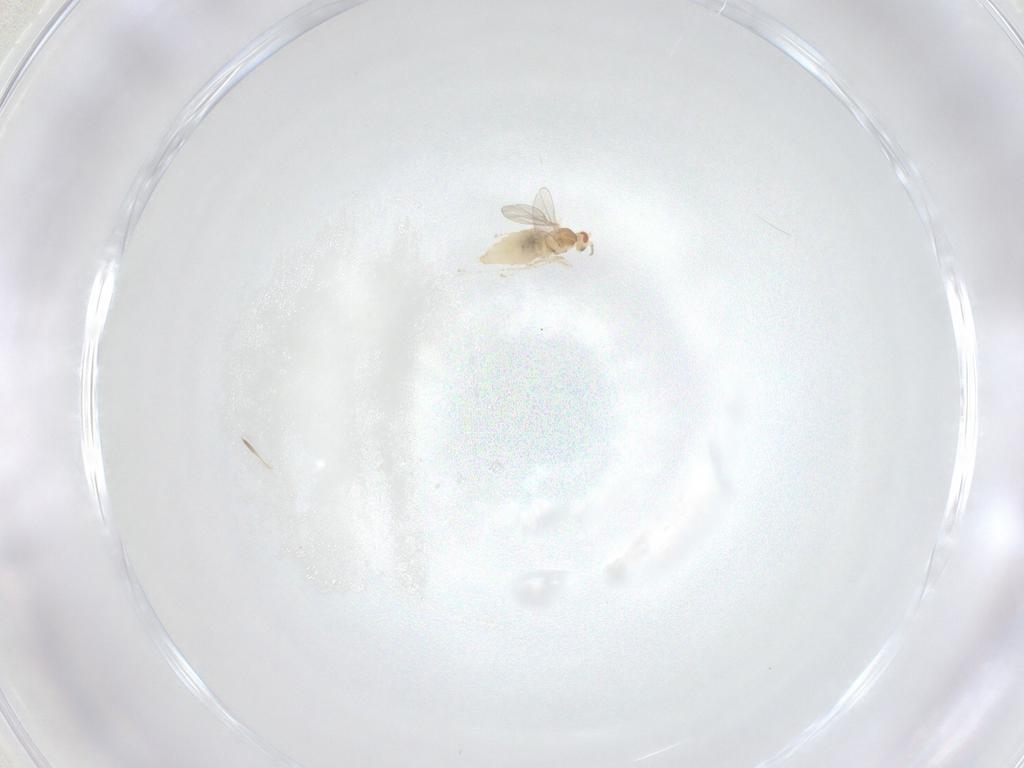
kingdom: Animalia
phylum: Arthropoda
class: Insecta
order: Diptera
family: Cecidomyiidae
